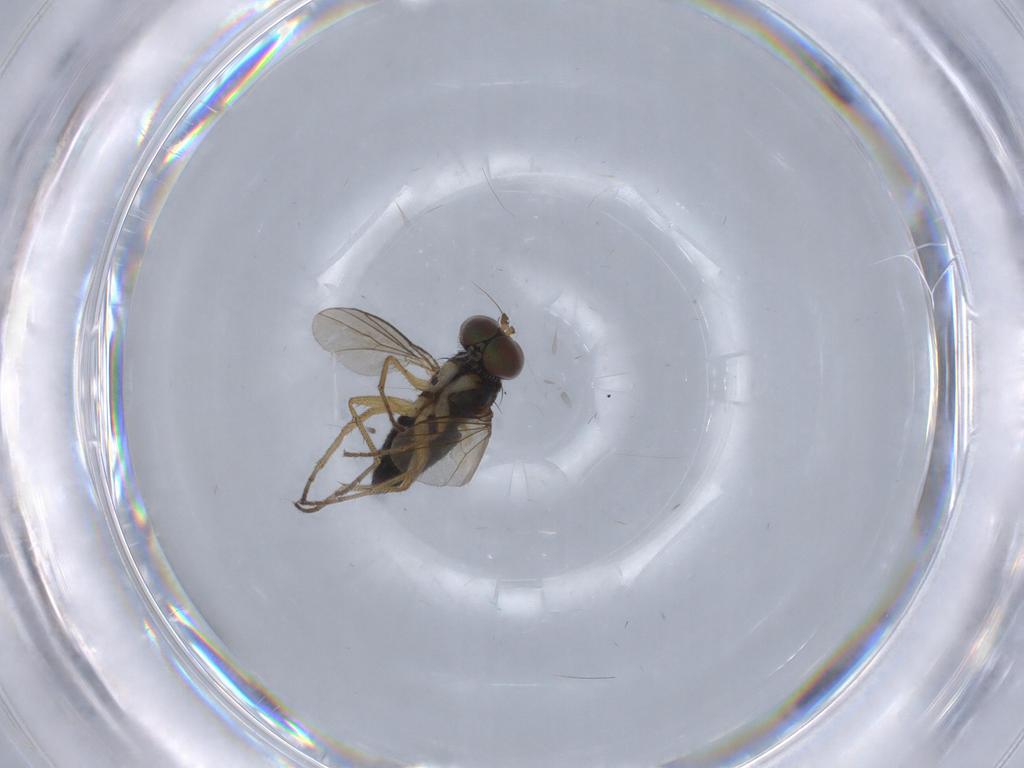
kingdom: Animalia
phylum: Arthropoda
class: Insecta
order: Diptera
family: Dolichopodidae
